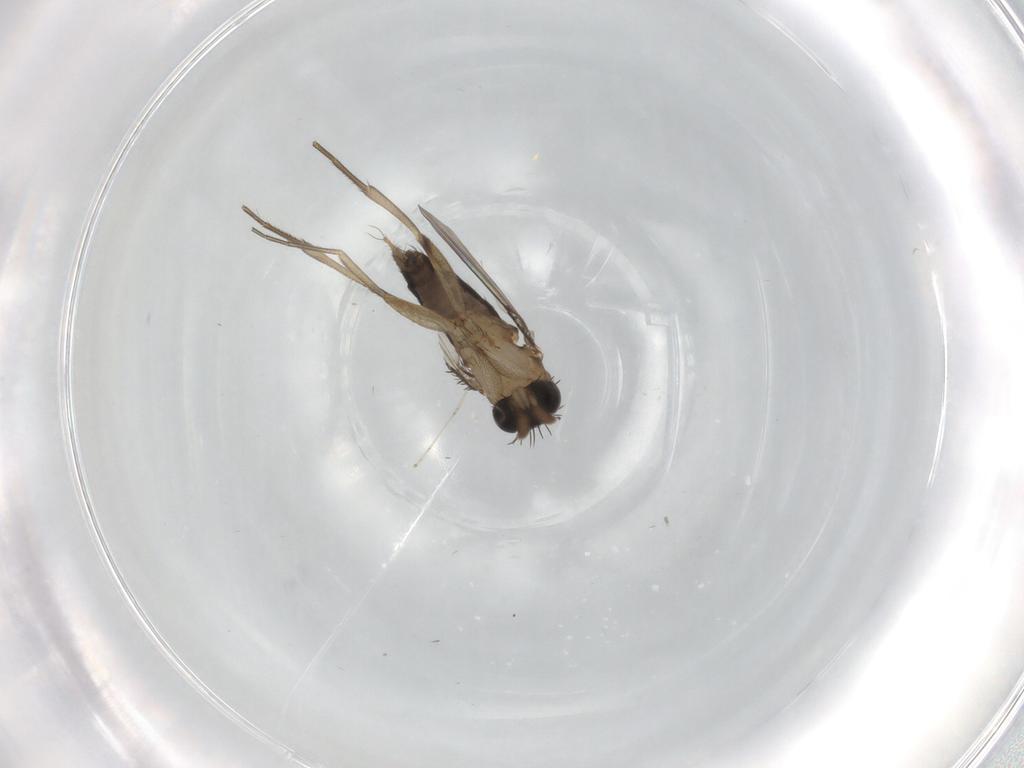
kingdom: Animalia
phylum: Arthropoda
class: Insecta
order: Diptera
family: Phoridae
